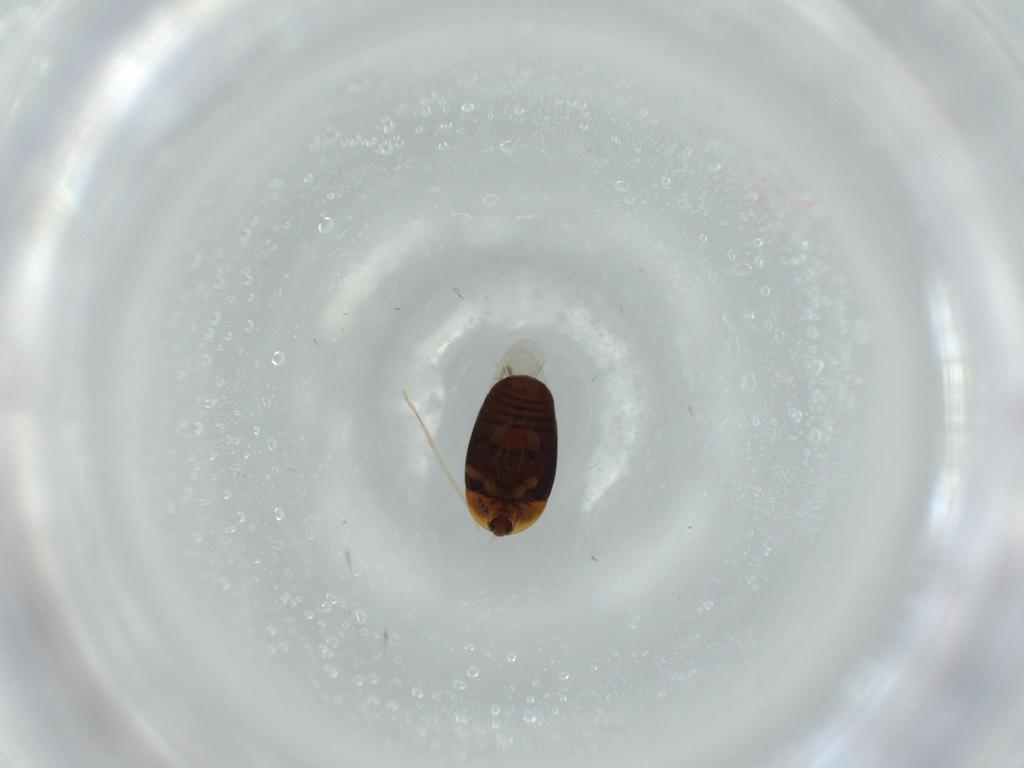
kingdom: Animalia
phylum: Arthropoda
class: Insecta
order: Coleoptera
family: Corylophidae
